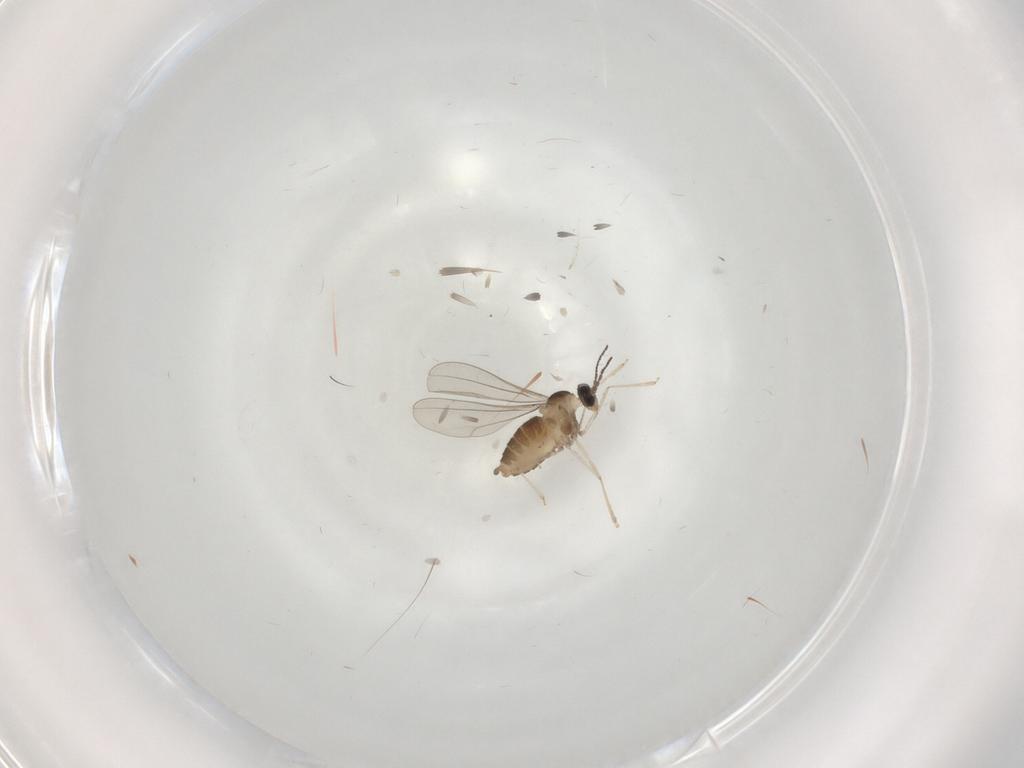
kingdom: Animalia
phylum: Arthropoda
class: Insecta
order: Diptera
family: Cecidomyiidae
